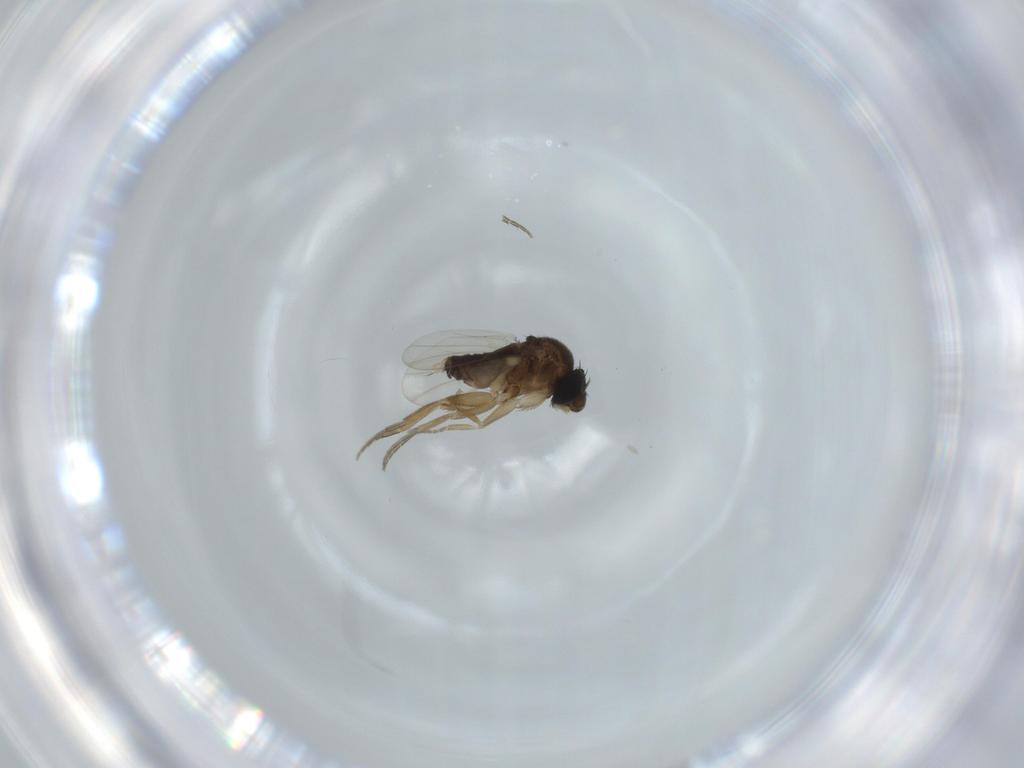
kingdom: Animalia
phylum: Arthropoda
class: Insecta
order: Diptera
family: Phoridae
